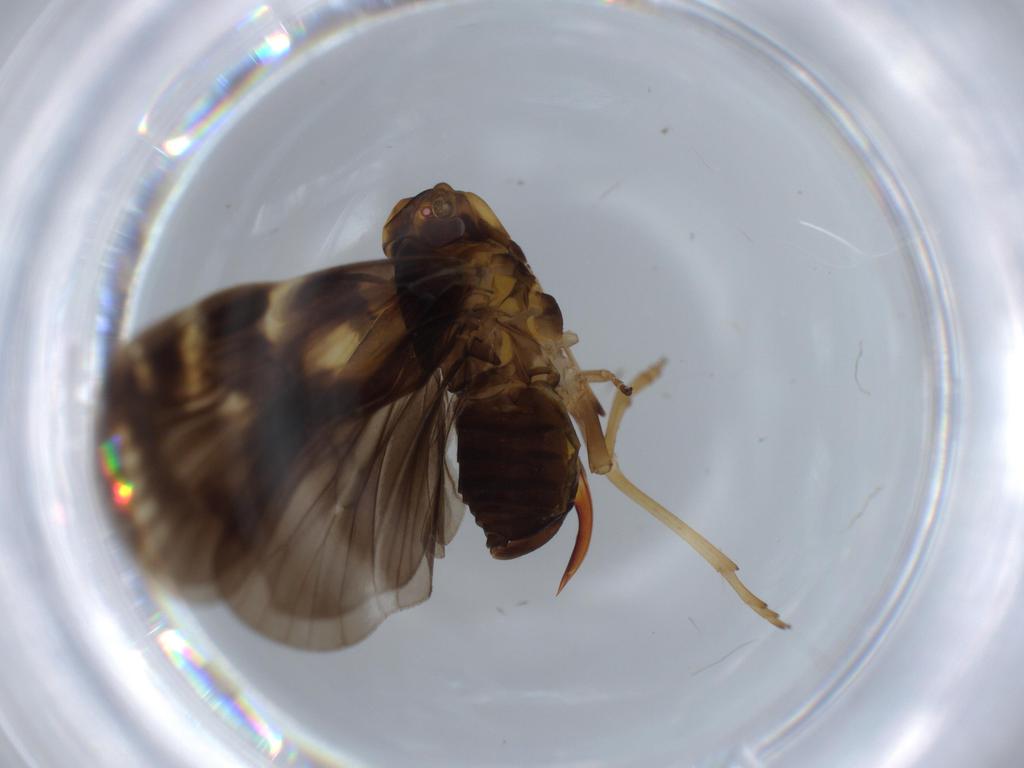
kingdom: Animalia
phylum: Arthropoda
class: Insecta
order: Hemiptera
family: Cixiidae
